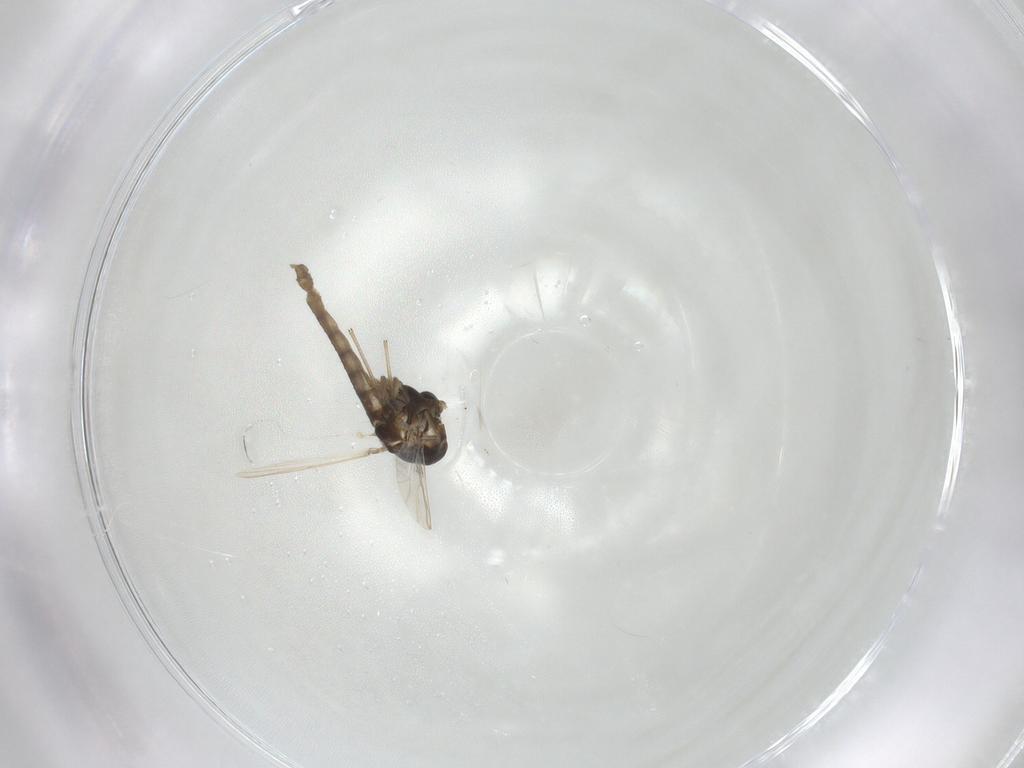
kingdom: Animalia
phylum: Arthropoda
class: Insecta
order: Diptera
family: Chironomidae
